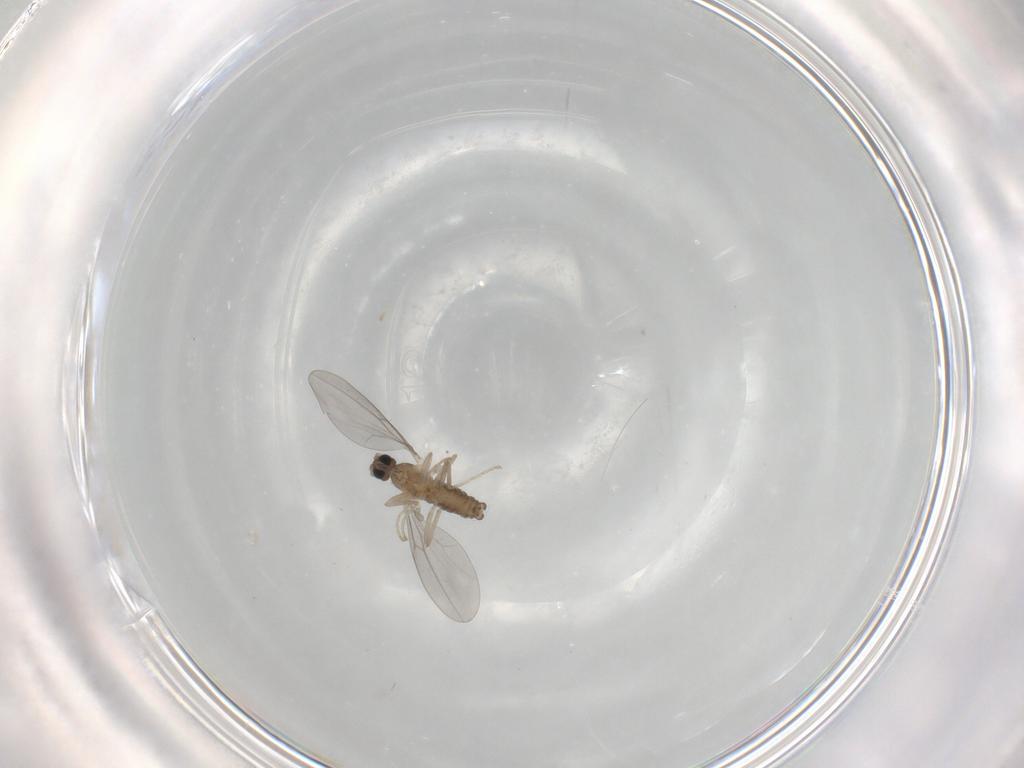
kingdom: Animalia
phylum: Arthropoda
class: Insecta
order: Diptera
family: Cecidomyiidae
